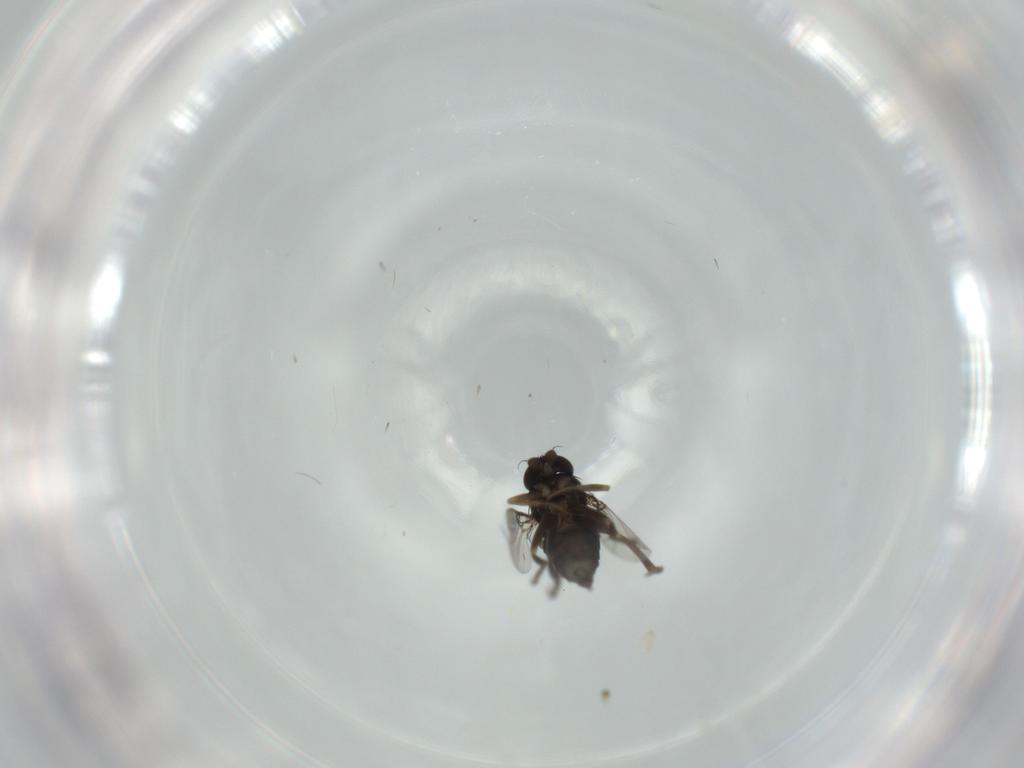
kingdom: Animalia
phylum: Arthropoda
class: Insecta
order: Diptera
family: Phoridae
